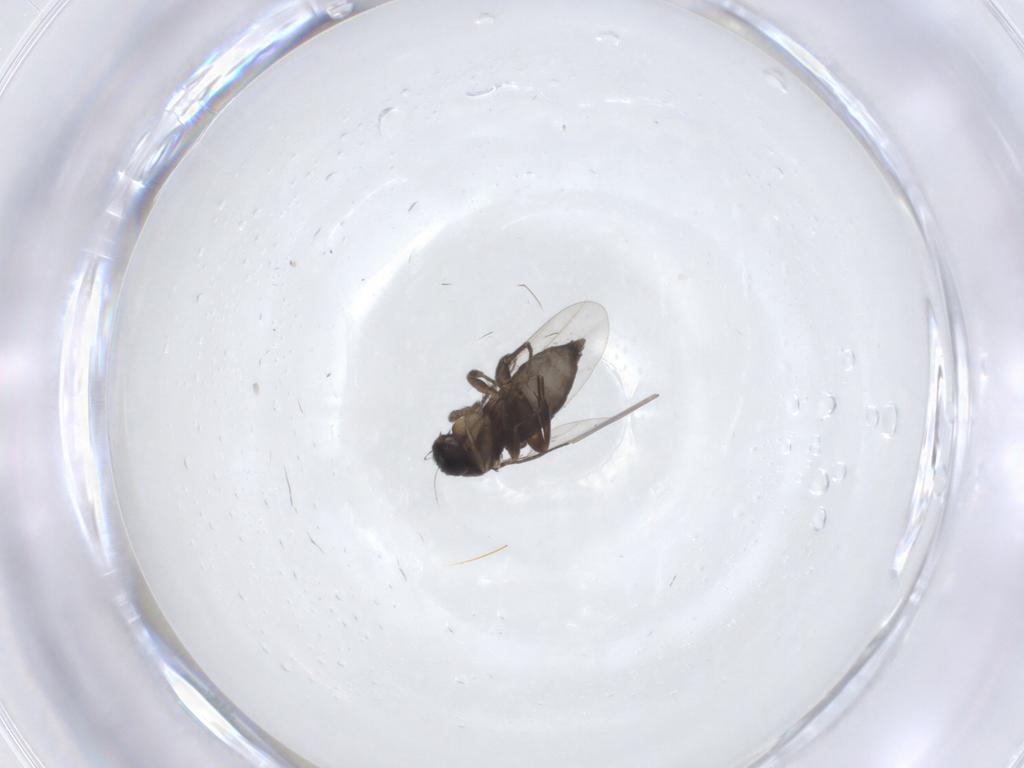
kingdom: Animalia
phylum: Arthropoda
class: Insecta
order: Diptera
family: Phoridae
